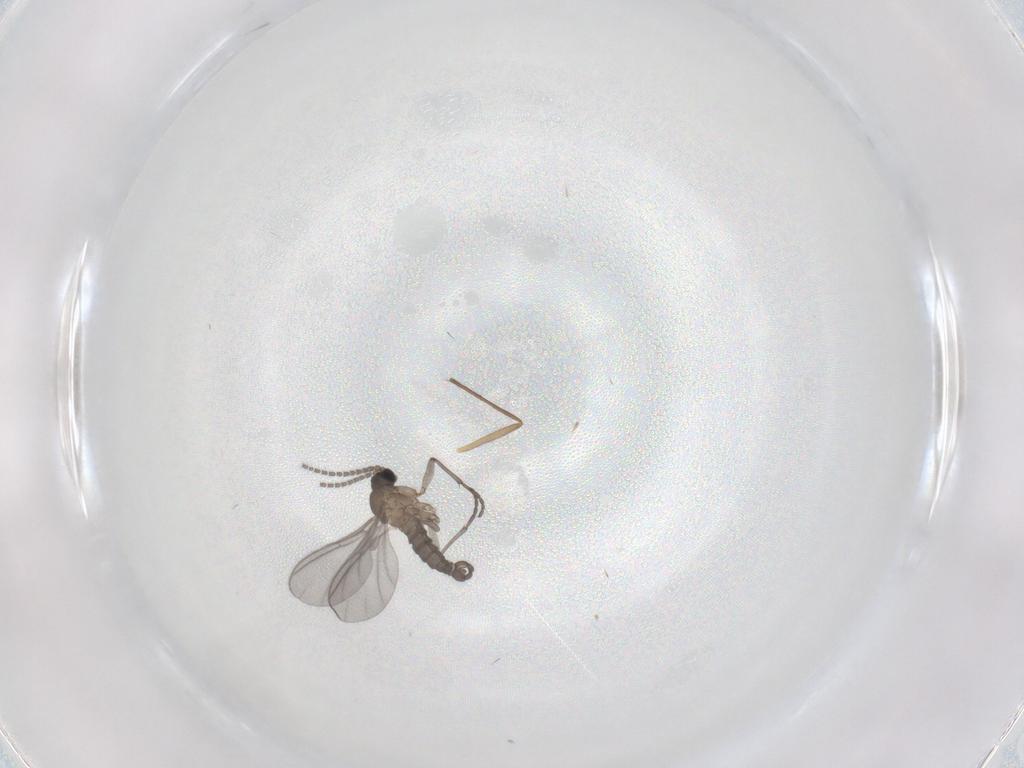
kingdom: Animalia
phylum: Arthropoda
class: Insecta
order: Diptera
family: Sciaridae
